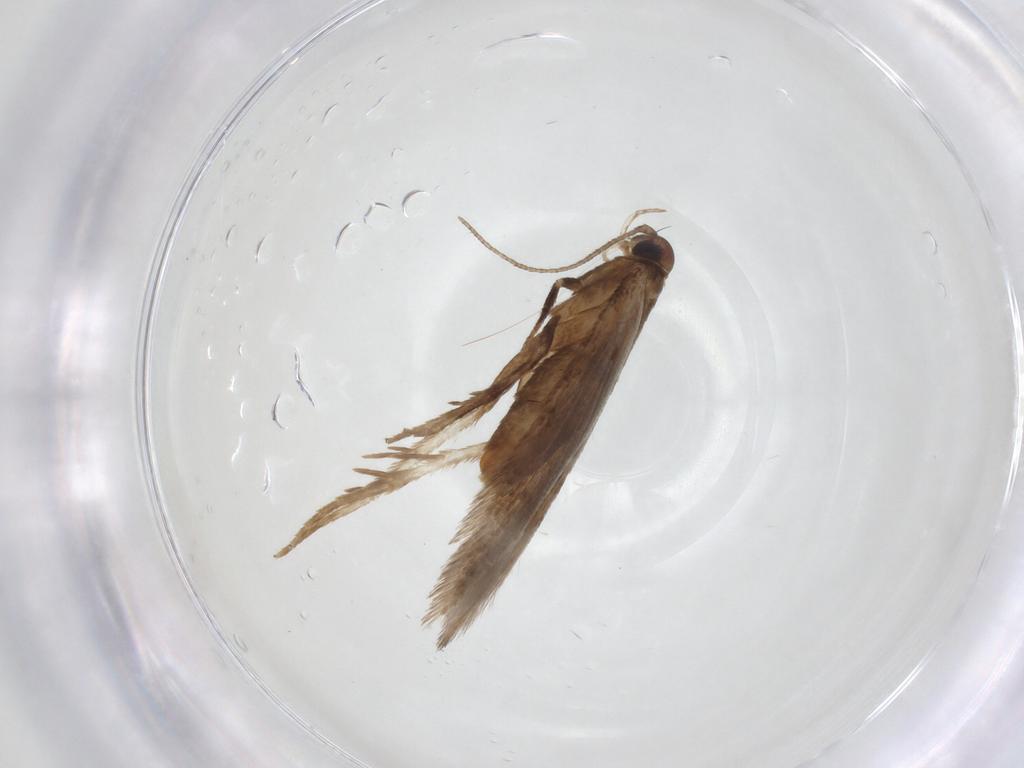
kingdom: Animalia
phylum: Arthropoda
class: Insecta
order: Lepidoptera
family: Gelechiidae
